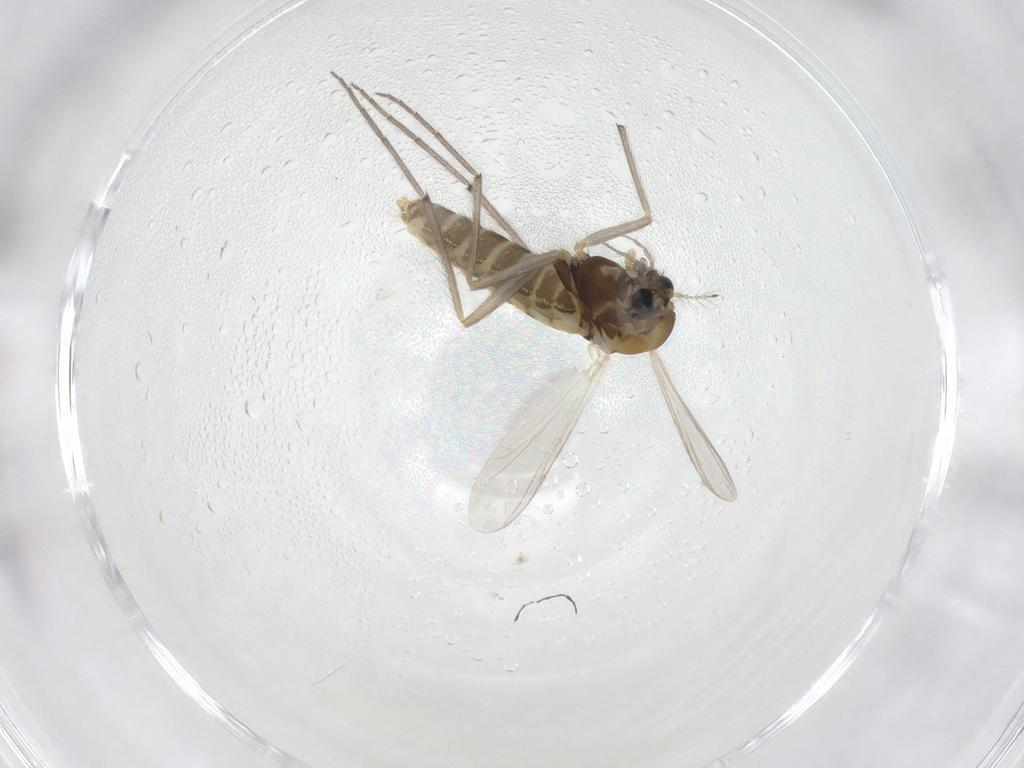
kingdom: Animalia
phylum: Arthropoda
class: Insecta
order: Diptera
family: Chironomidae
